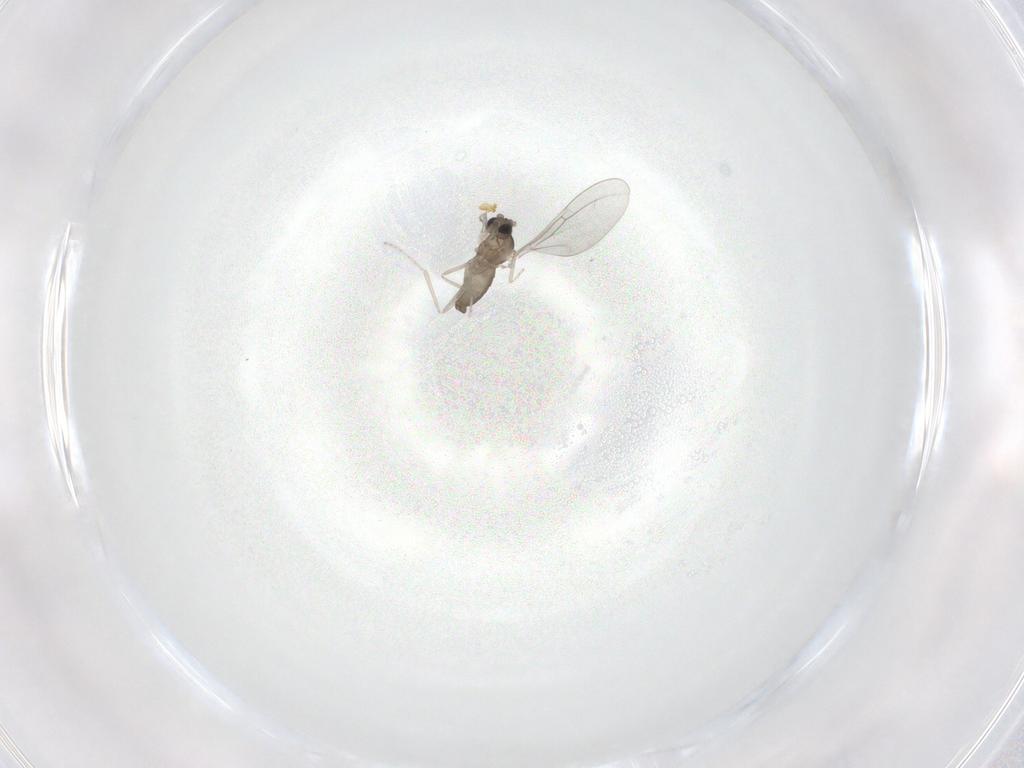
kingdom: Animalia
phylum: Arthropoda
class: Insecta
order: Diptera
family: Cecidomyiidae
